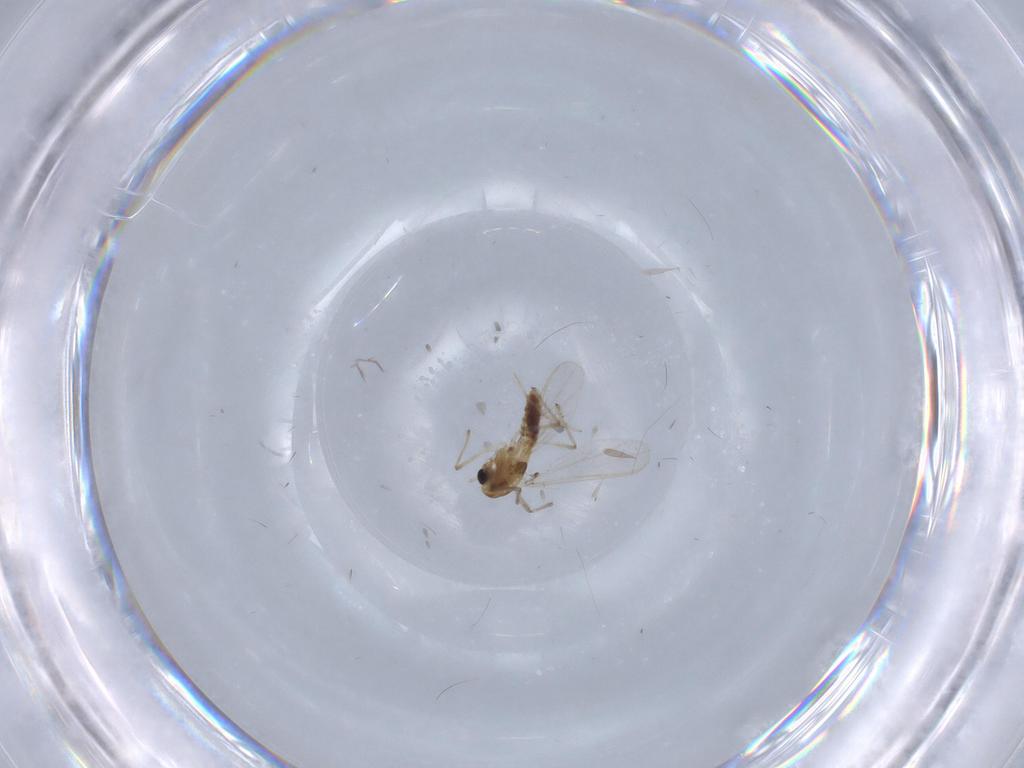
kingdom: Animalia
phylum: Arthropoda
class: Insecta
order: Diptera
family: Chironomidae
